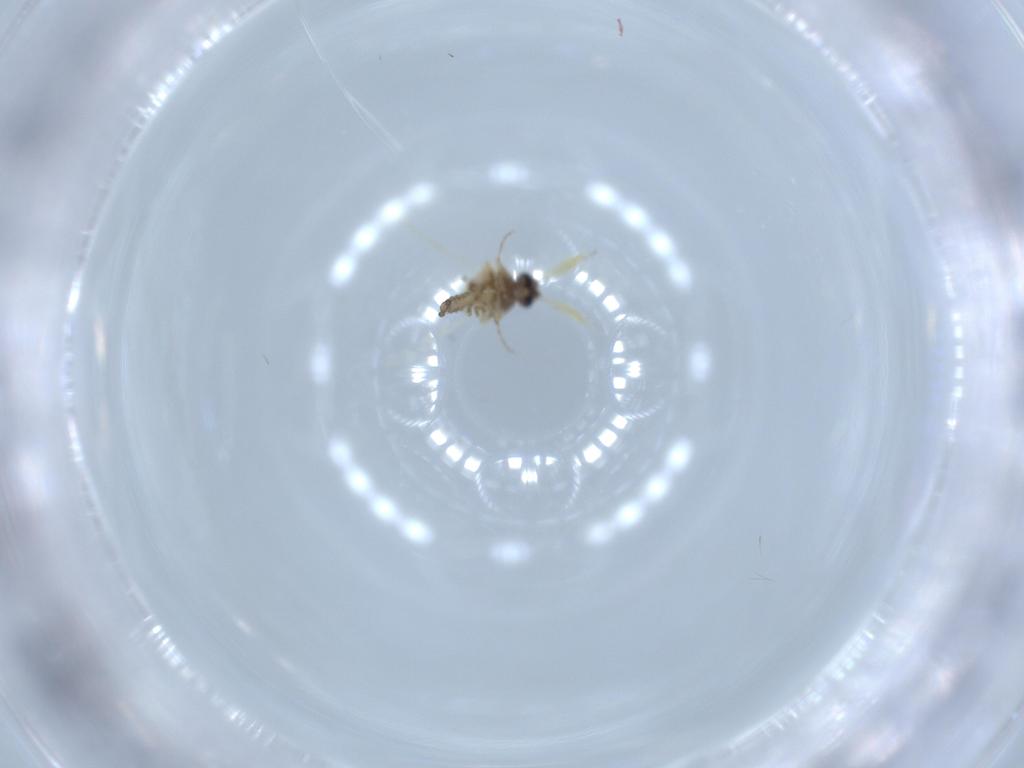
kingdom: Animalia
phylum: Arthropoda
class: Insecta
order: Diptera
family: Ceratopogonidae
